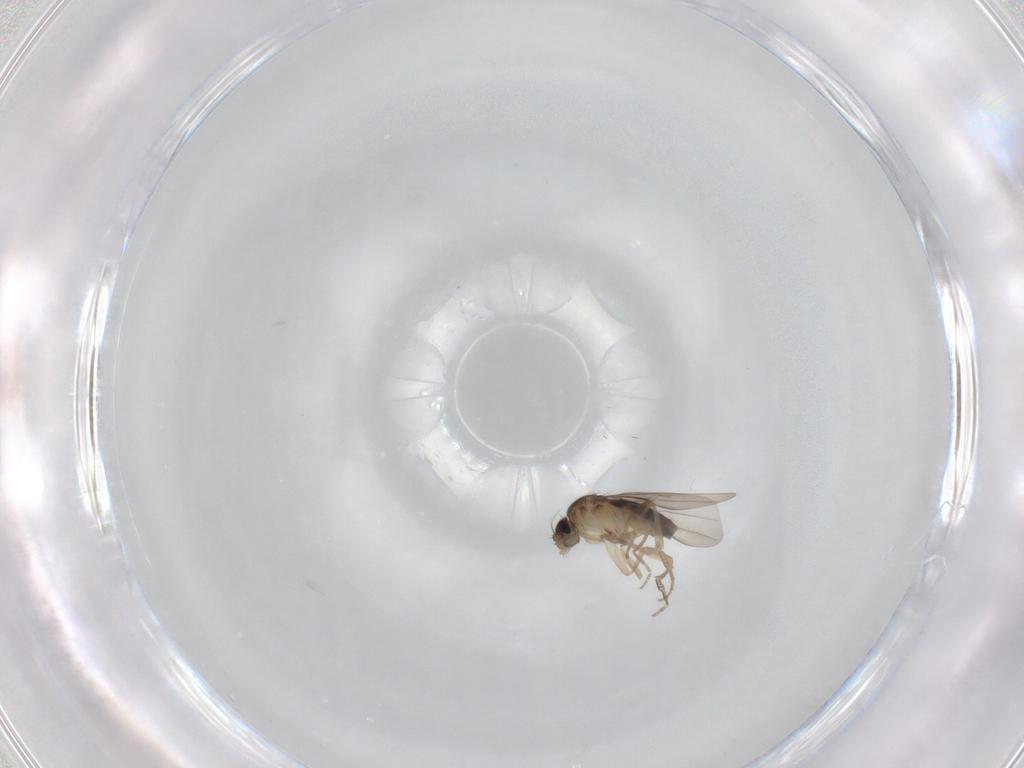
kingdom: Animalia
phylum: Arthropoda
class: Insecta
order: Diptera
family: Phoridae
